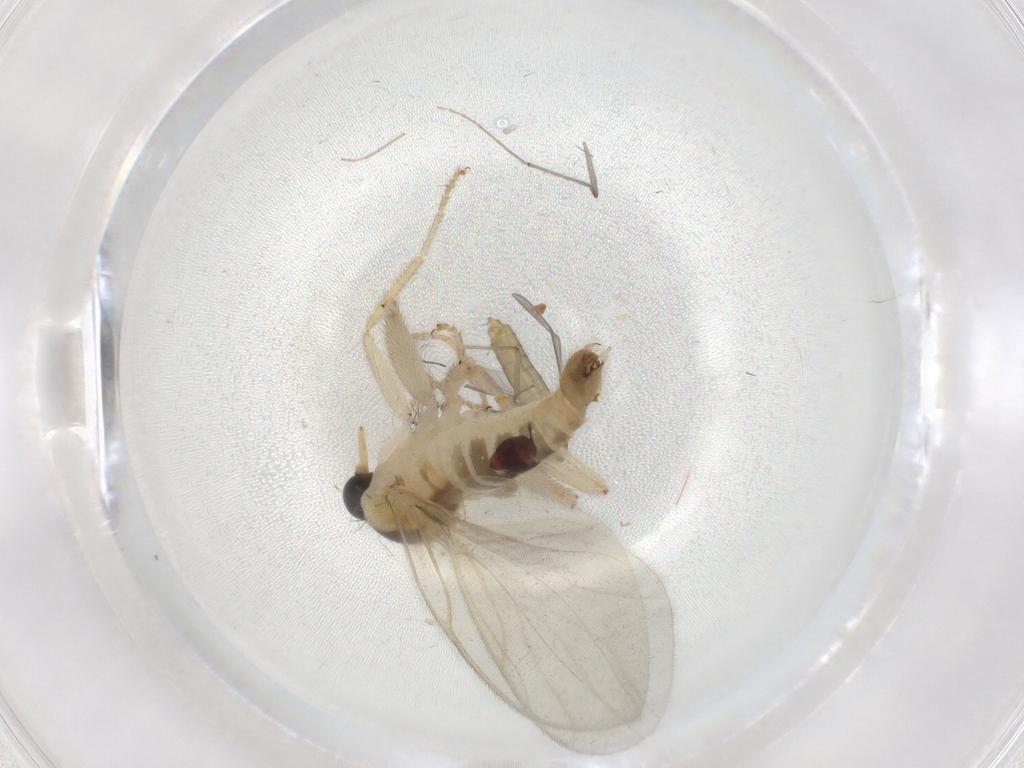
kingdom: Animalia
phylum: Arthropoda
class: Insecta
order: Diptera
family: Hybotidae
